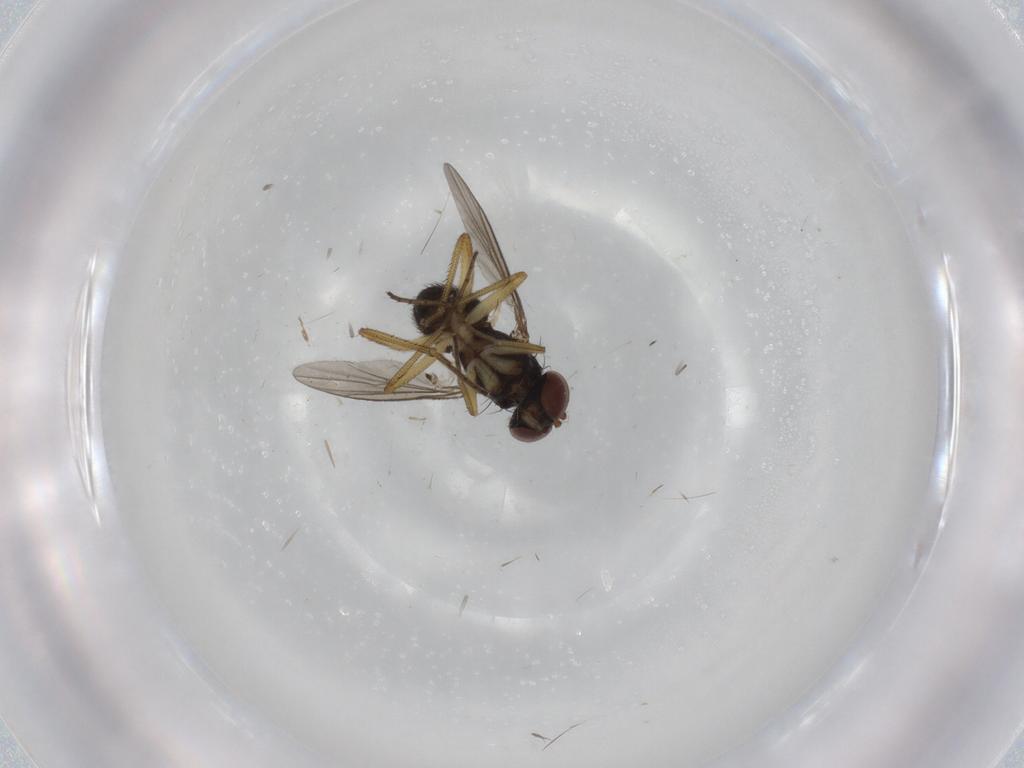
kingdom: Animalia
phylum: Arthropoda
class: Insecta
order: Diptera
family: Dolichopodidae
